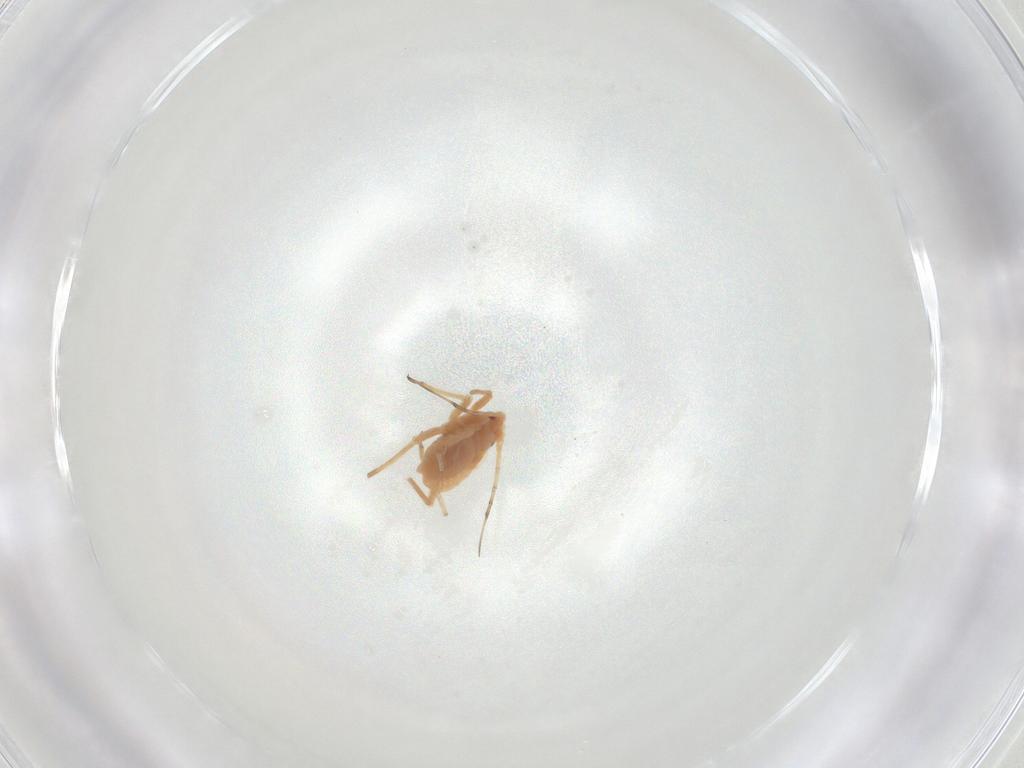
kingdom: Animalia
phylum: Arthropoda
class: Insecta
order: Hemiptera
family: Aphididae
